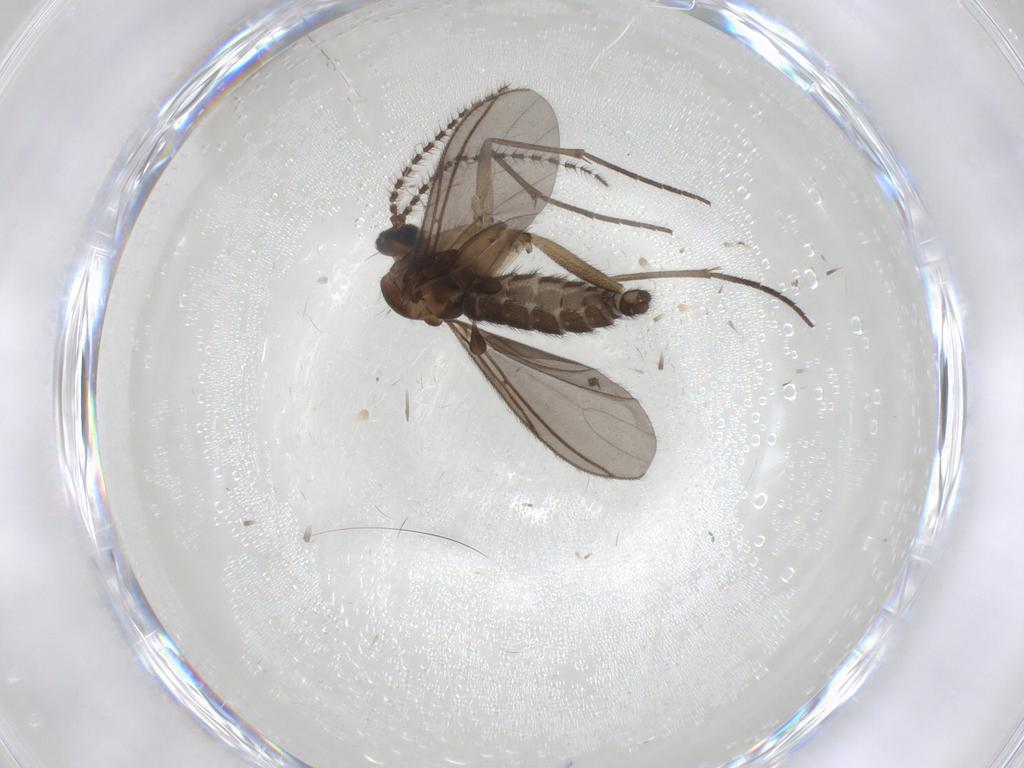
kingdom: Animalia
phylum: Arthropoda
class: Insecta
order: Diptera
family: Sciaridae
